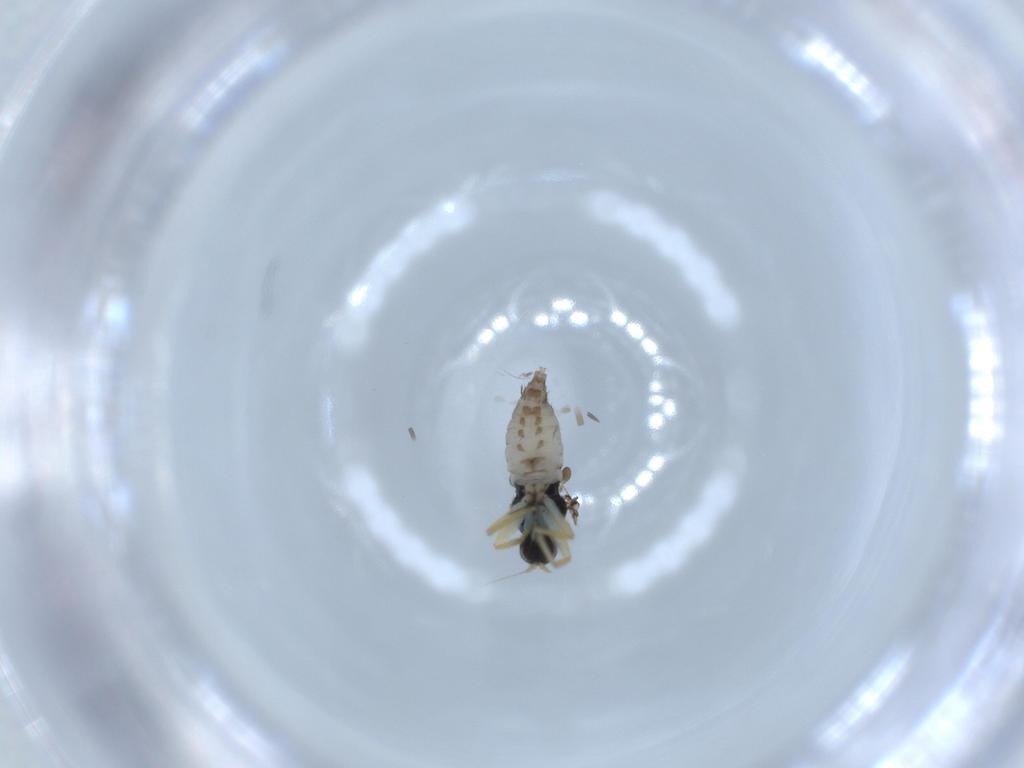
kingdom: Animalia
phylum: Arthropoda
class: Insecta
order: Diptera
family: Hybotidae
